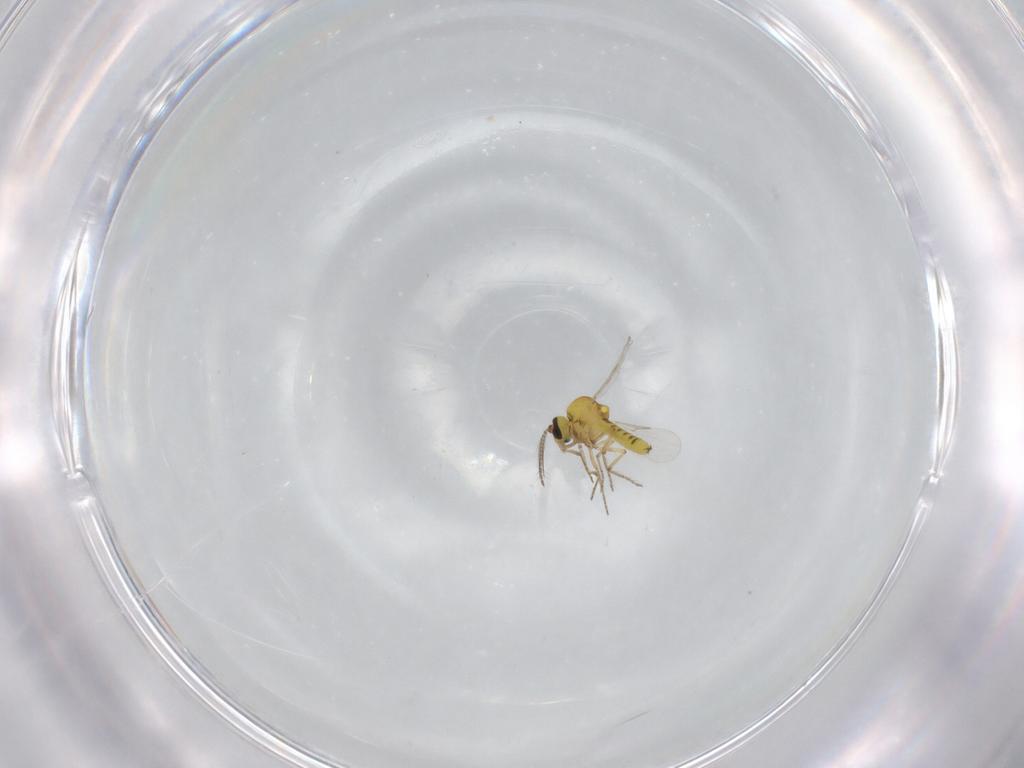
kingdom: Animalia
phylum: Arthropoda
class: Insecta
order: Diptera
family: Ceratopogonidae
